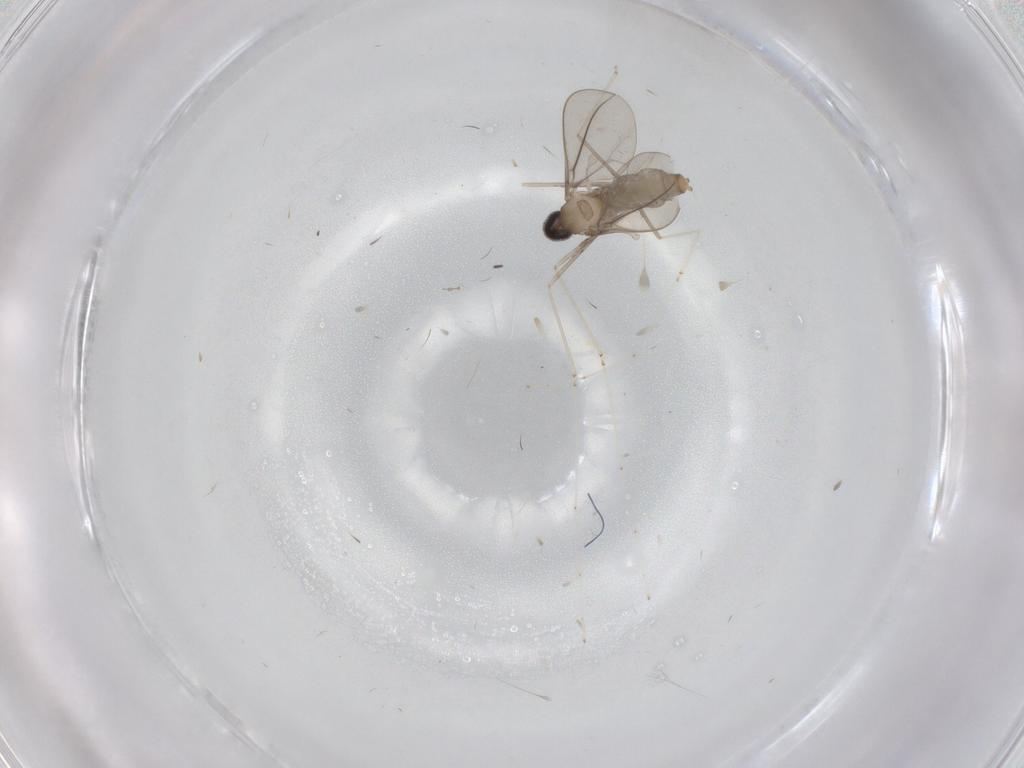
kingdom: Animalia
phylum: Arthropoda
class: Insecta
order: Diptera
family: Cecidomyiidae
